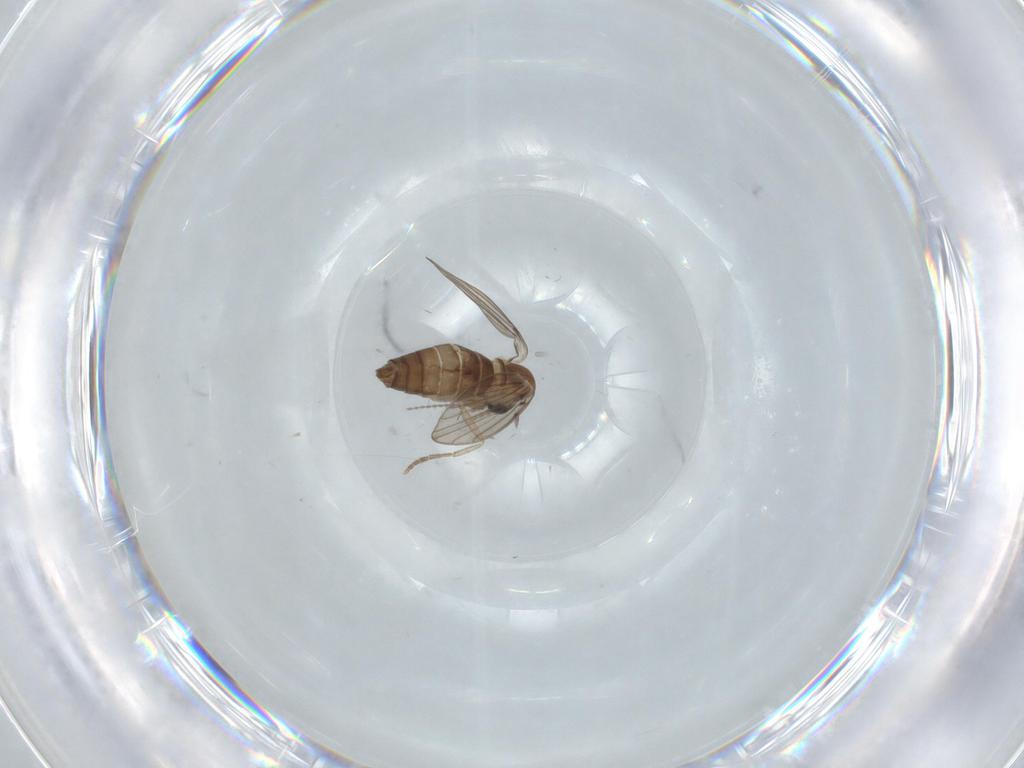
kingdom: Animalia
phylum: Arthropoda
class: Insecta
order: Diptera
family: Psychodidae
